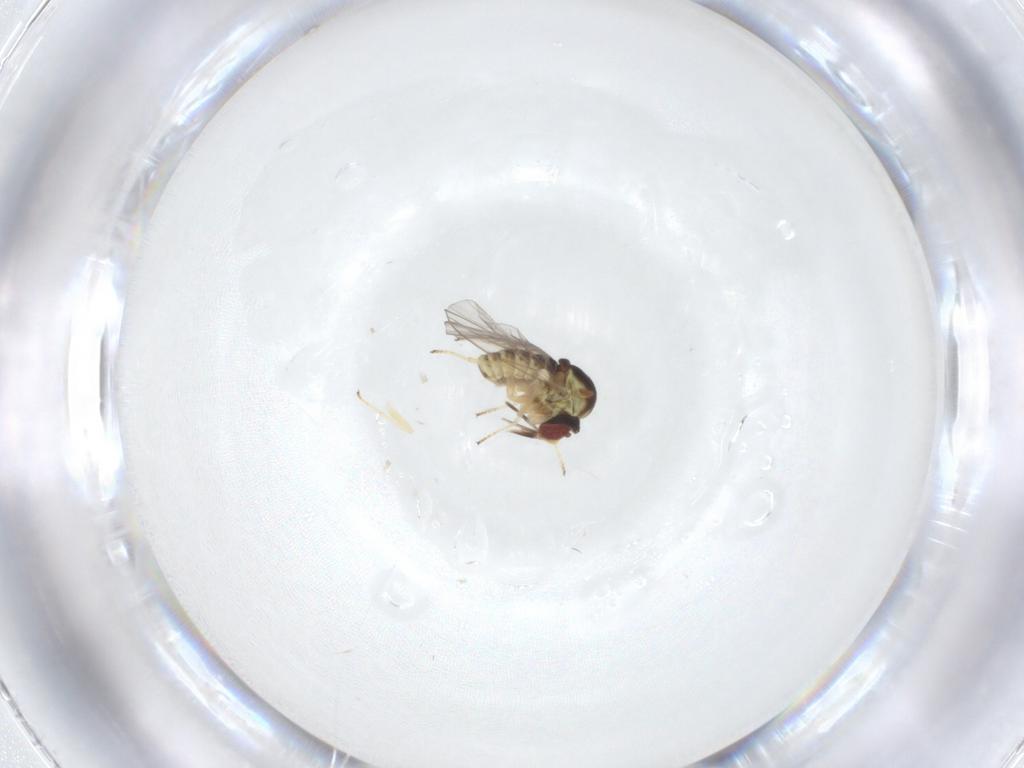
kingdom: Animalia
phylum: Arthropoda
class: Insecta
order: Diptera
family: Mythicomyiidae
